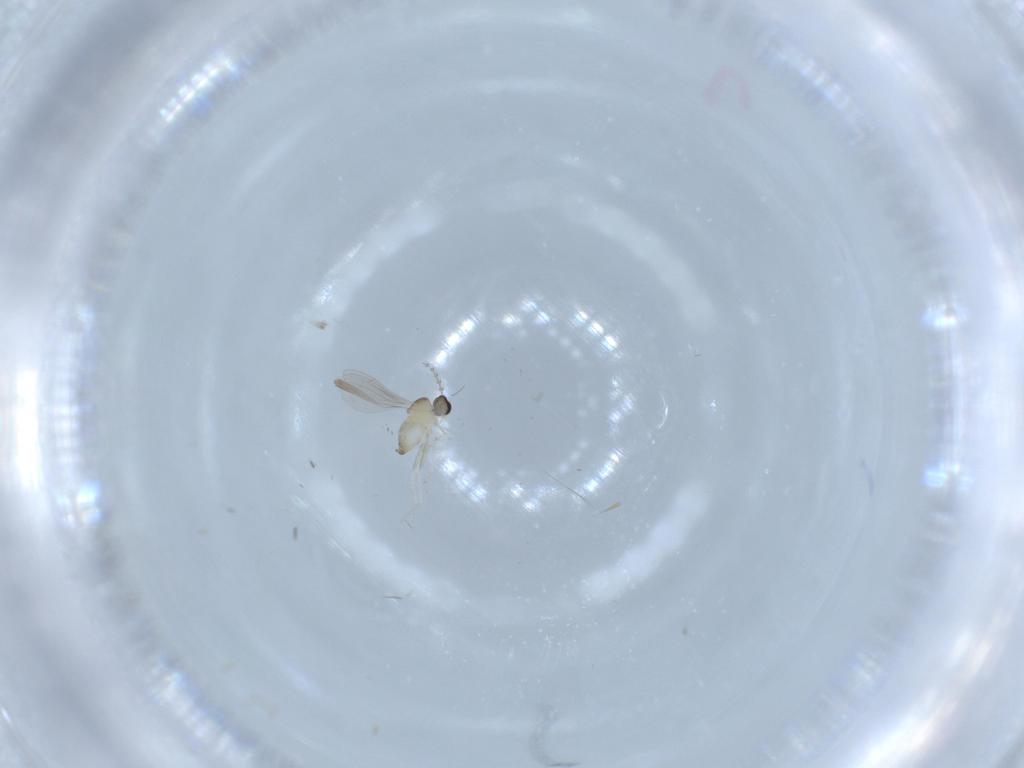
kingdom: Animalia
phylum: Arthropoda
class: Insecta
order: Diptera
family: Cecidomyiidae
